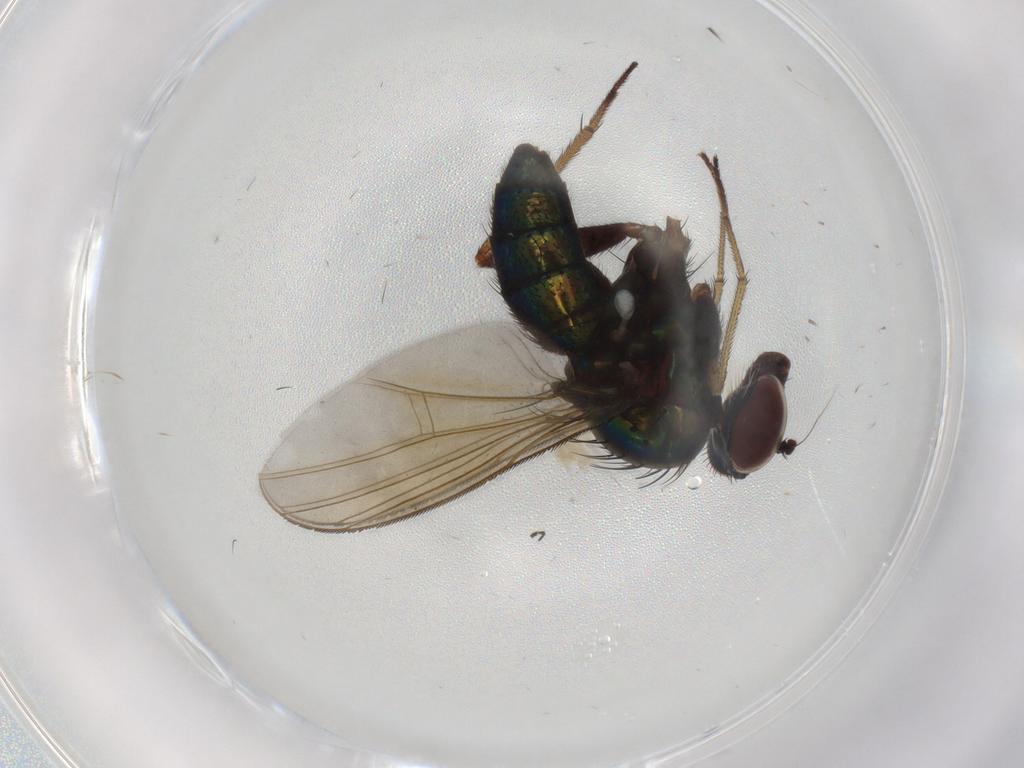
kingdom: Animalia
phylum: Arthropoda
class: Insecta
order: Diptera
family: Dolichopodidae
